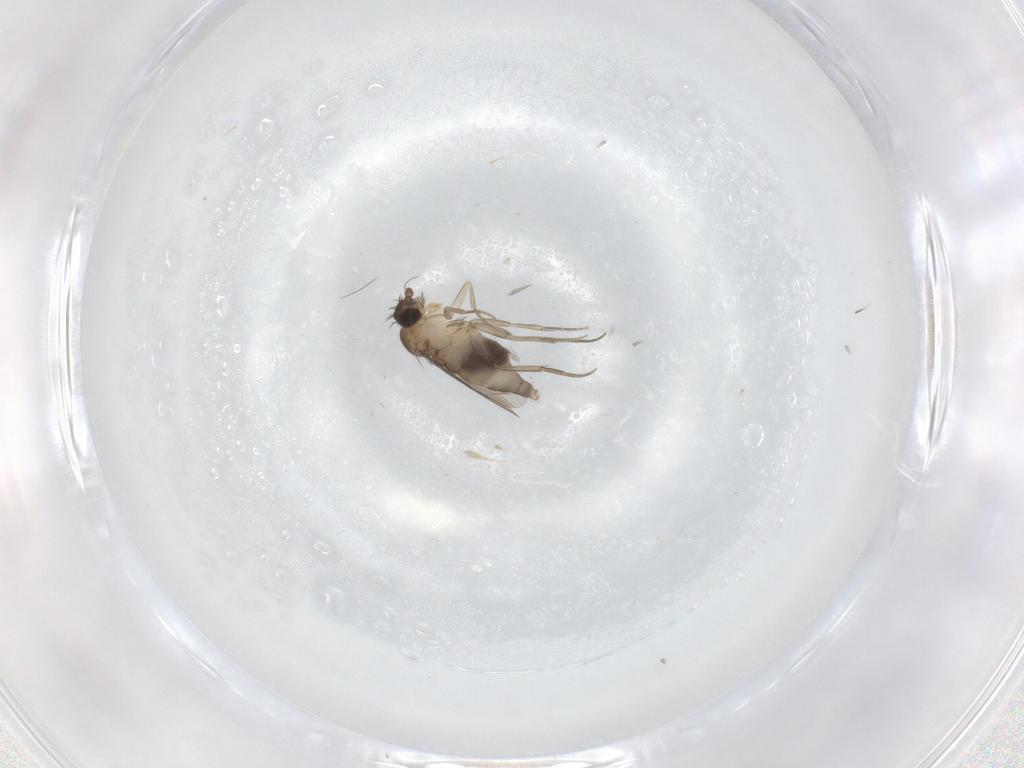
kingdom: Animalia
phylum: Arthropoda
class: Insecta
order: Diptera
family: Phoridae
